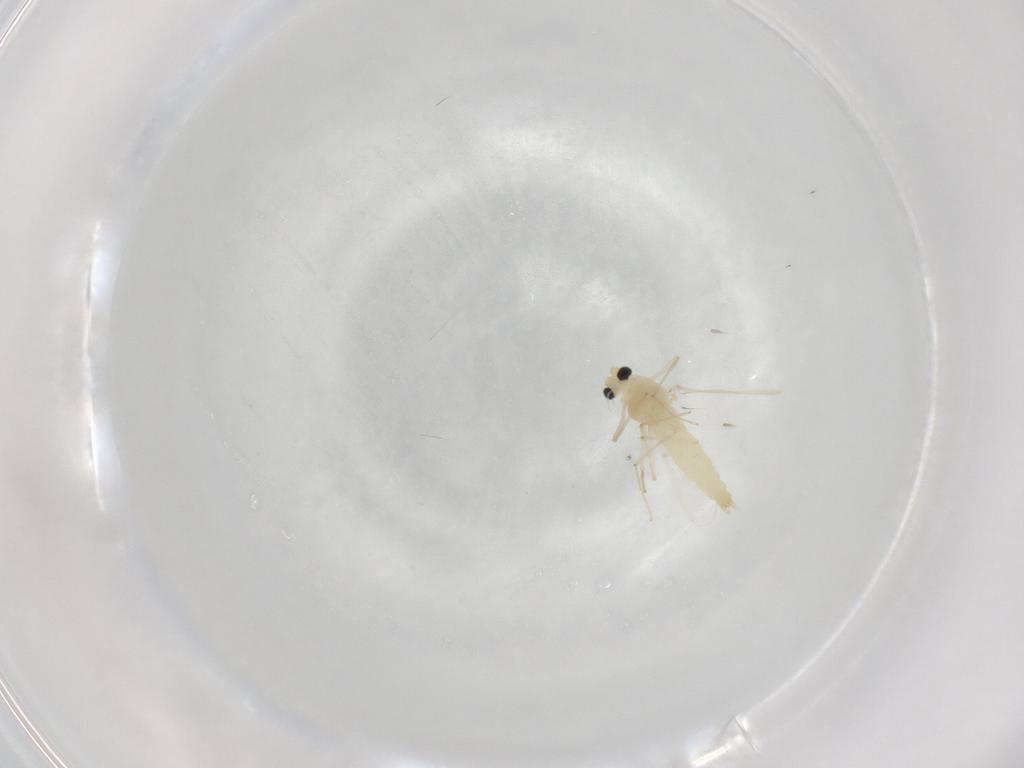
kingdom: Animalia
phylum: Arthropoda
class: Insecta
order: Diptera
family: Chironomidae
